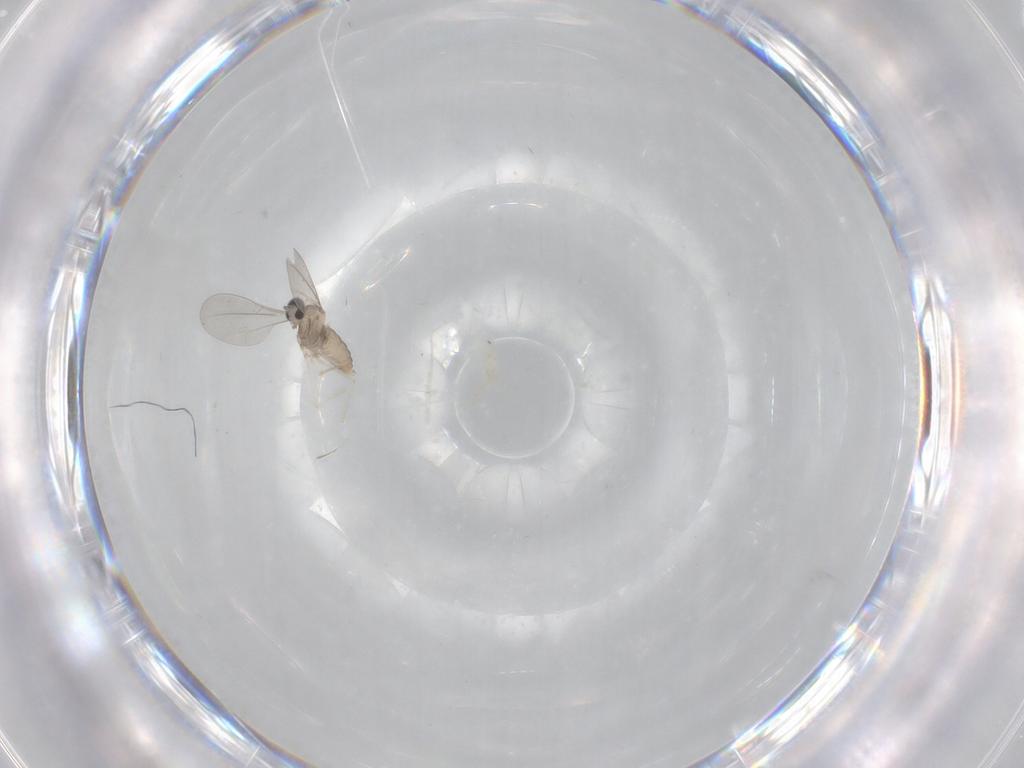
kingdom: Animalia
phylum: Arthropoda
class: Insecta
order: Diptera
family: Cecidomyiidae
